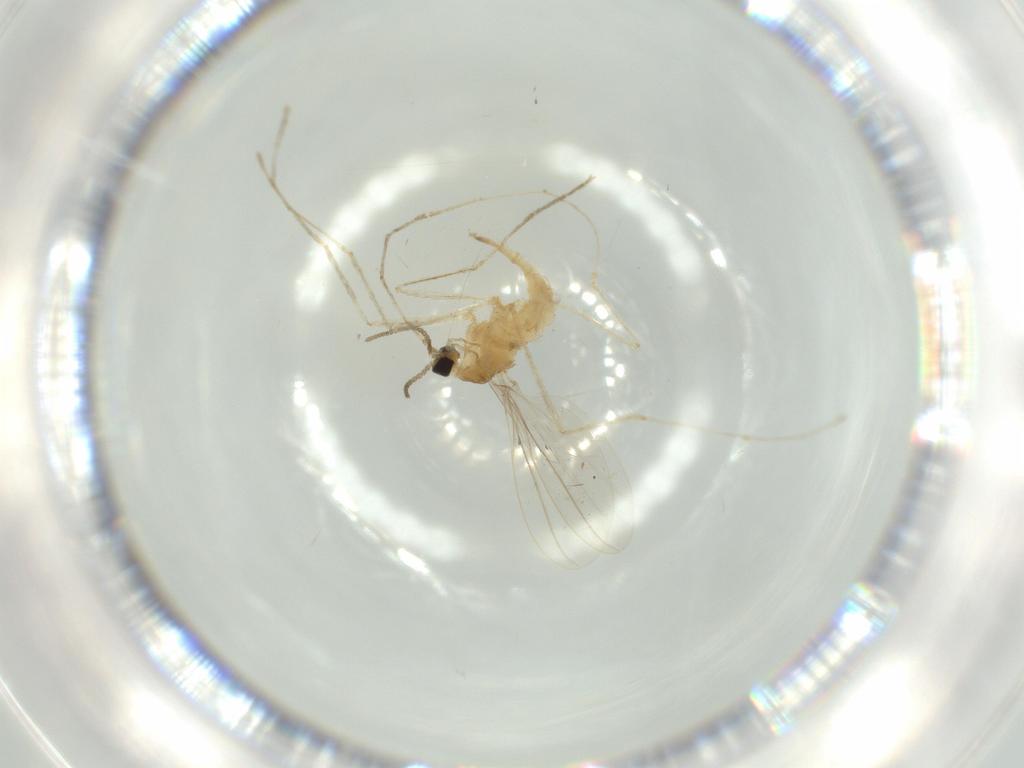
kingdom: Animalia
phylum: Arthropoda
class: Insecta
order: Diptera
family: Cecidomyiidae
